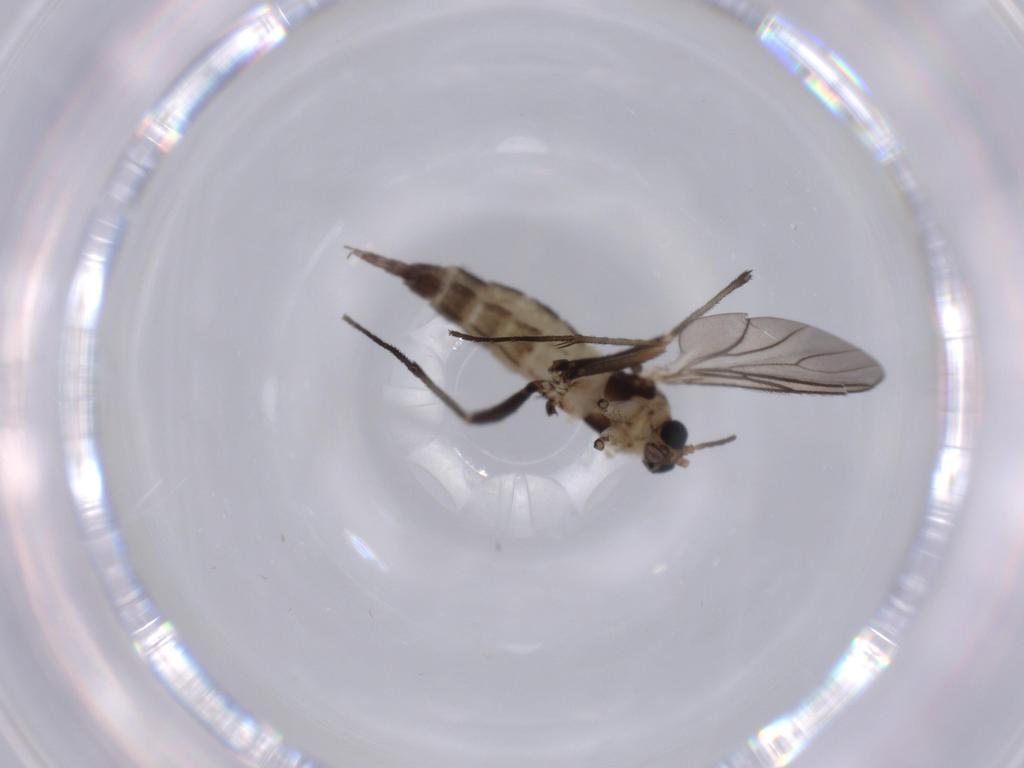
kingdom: Animalia
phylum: Arthropoda
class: Insecta
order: Diptera
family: Sciaridae
